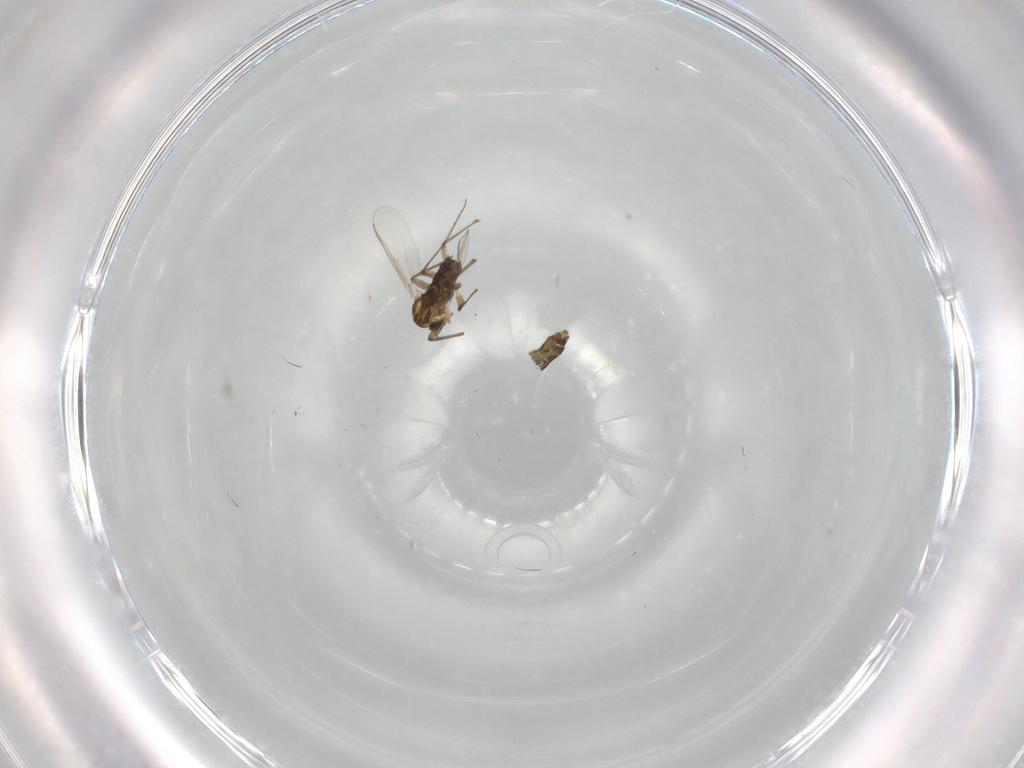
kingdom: Animalia
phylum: Arthropoda
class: Insecta
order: Diptera
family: Chironomidae
